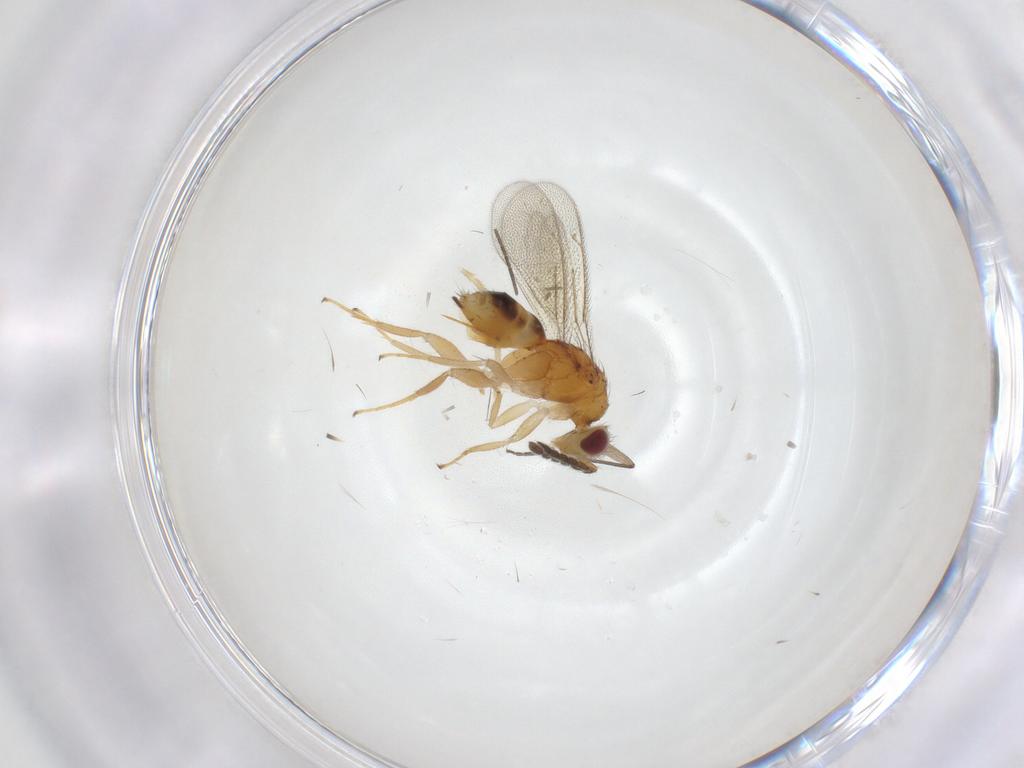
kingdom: Animalia
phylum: Arthropoda
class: Insecta
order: Hymenoptera
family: Eulophidae
